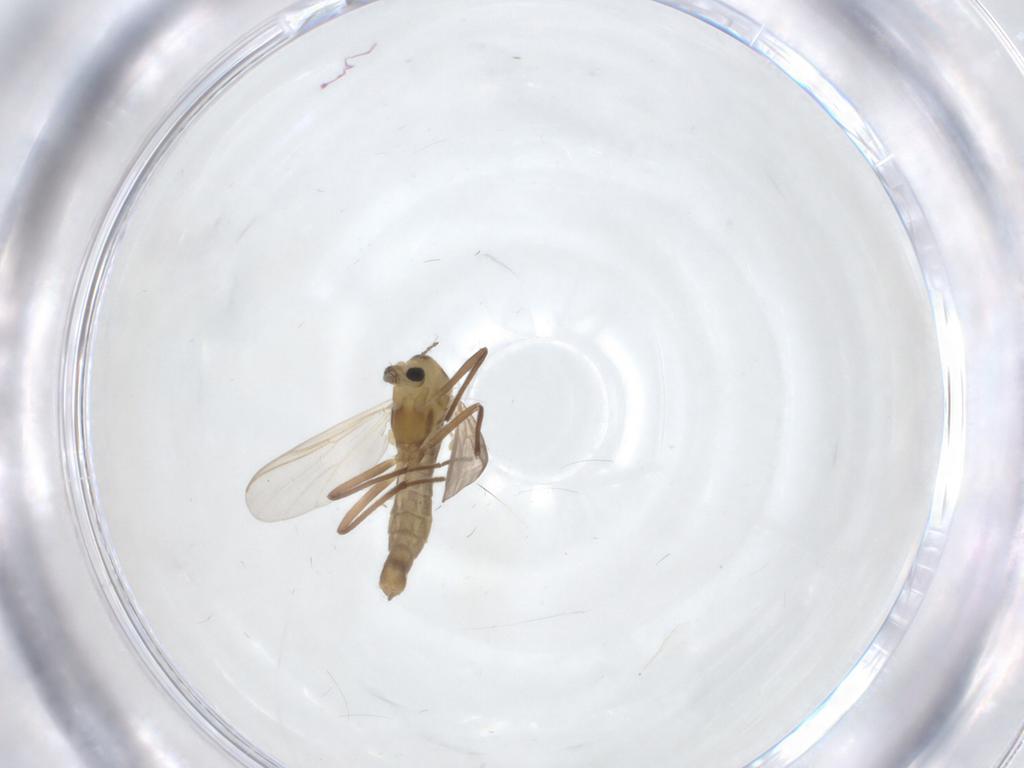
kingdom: Animalia
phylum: Arthropoda
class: Insecta
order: Diptera
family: Chironomidae
